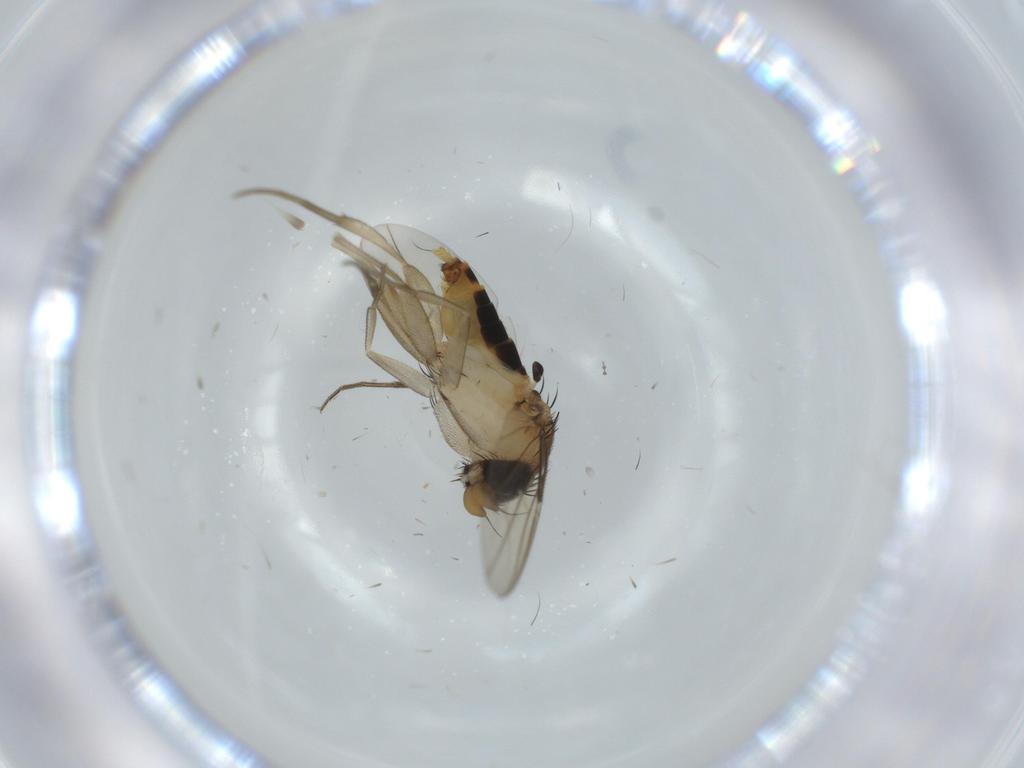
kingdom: Animalia
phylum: Arthropoda
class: Insecta
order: Diptera
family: Phoridae
